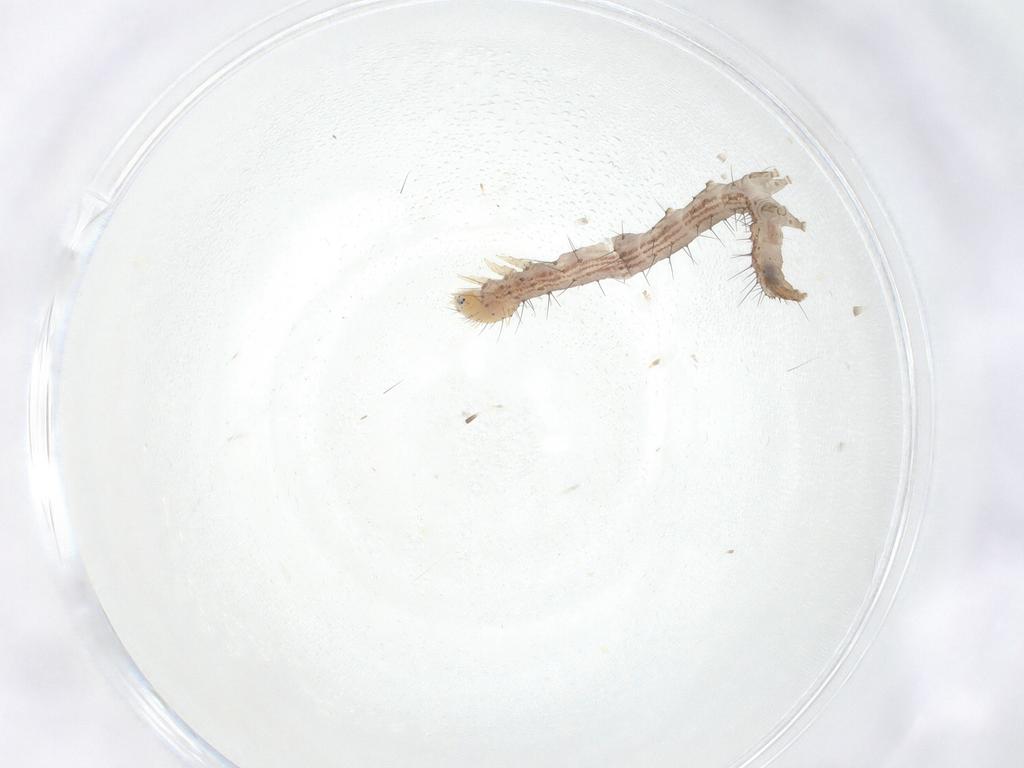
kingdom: Animalia
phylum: Arthropoda
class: Insecta
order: Lepidoptera
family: Erebidae
